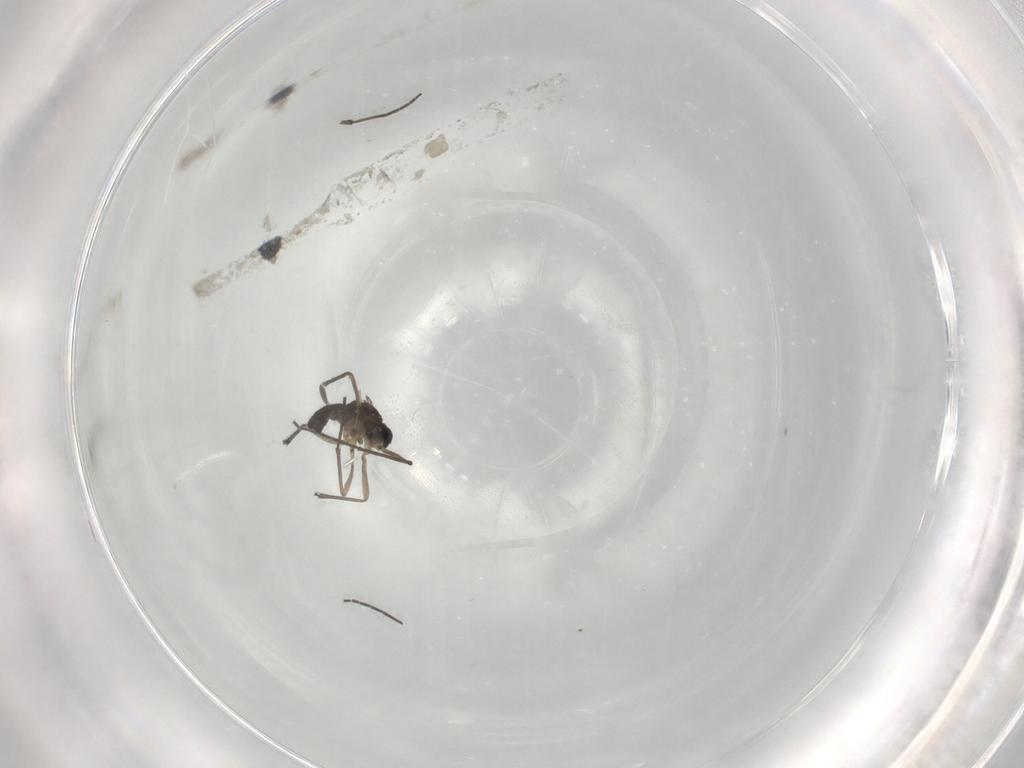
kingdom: Animalia
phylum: Arthropoda
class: Insecta
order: Diptera
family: Sciaridae
